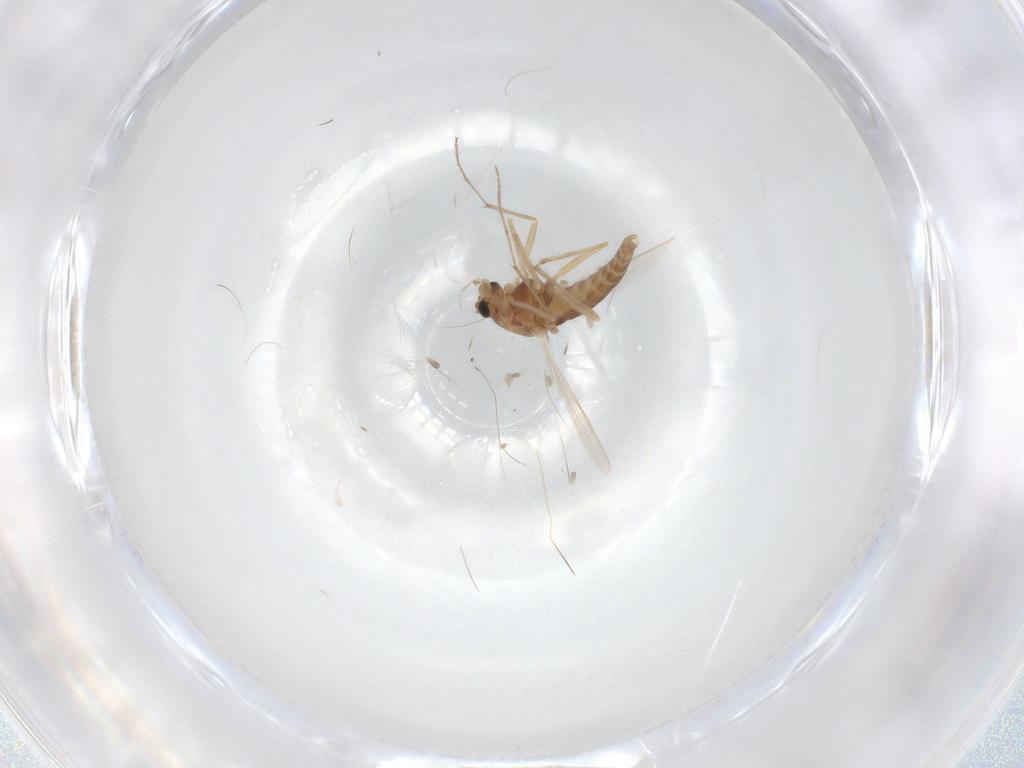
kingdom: Animalia
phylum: Arthropoda
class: Insecta
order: Diptera
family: Chironomidae
